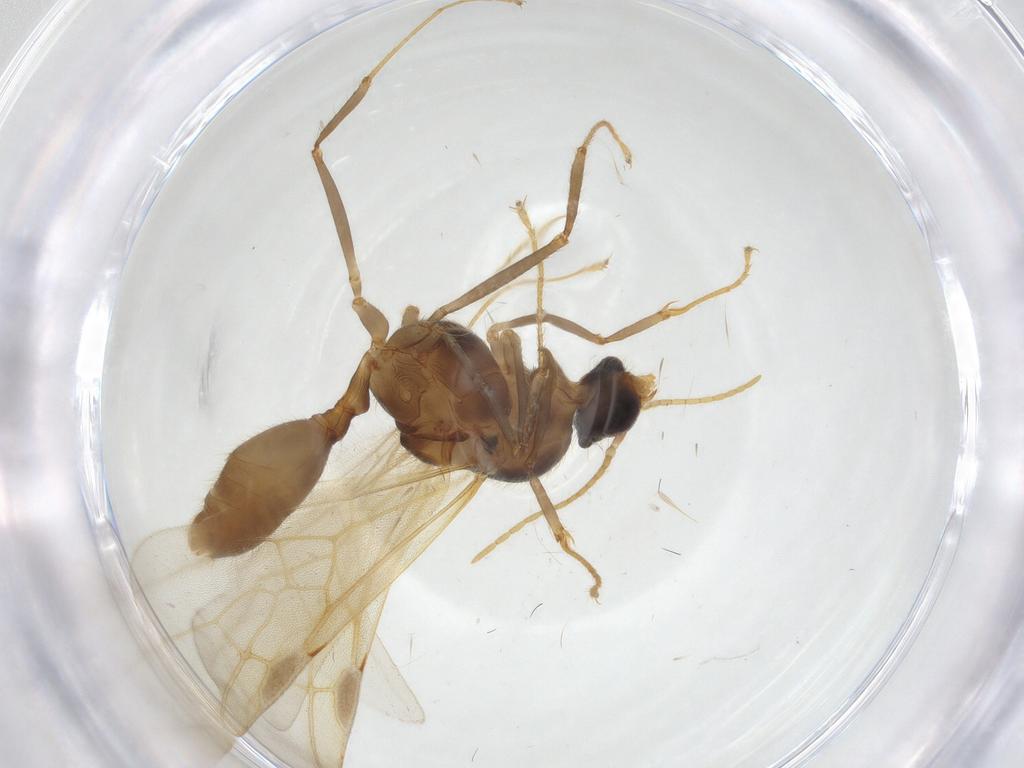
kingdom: Animalia
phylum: Arthropoda
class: Insecta
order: Hymenoptera
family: Formicidae
